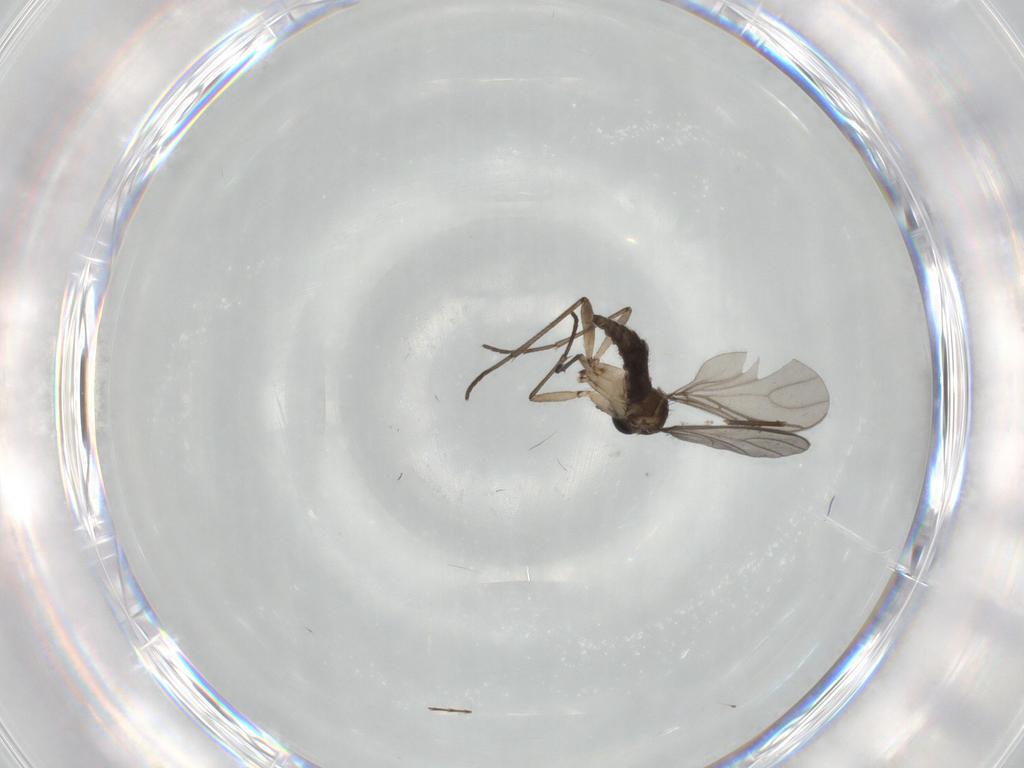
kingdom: Animalia
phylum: Arthropoda
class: Insecta
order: Diptera
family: Sciaridae
